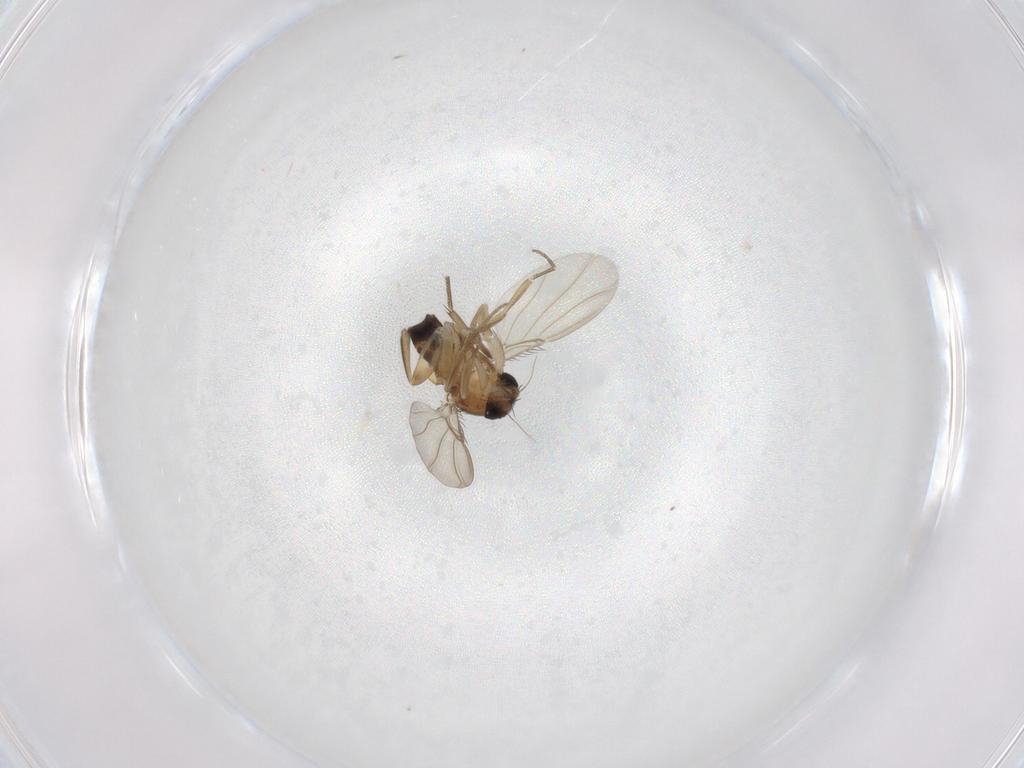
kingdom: Animalia
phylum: Arthropoda
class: Insecta
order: Diptera
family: Phoridae
